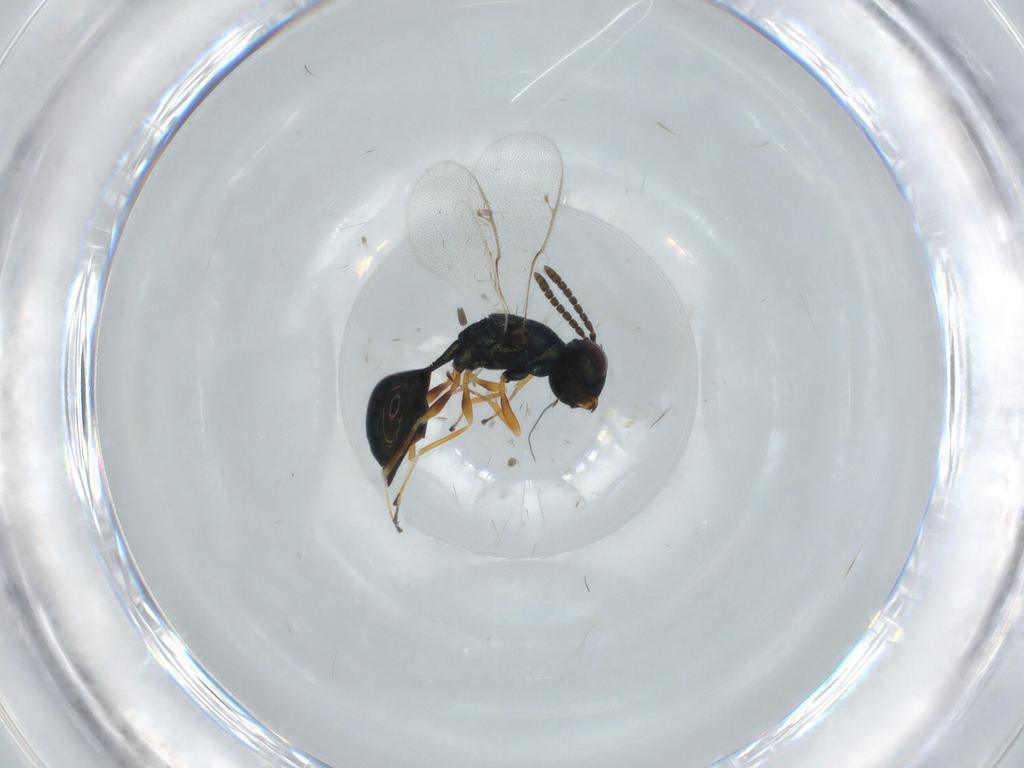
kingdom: Animalia
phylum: Arthropoda
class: Insecta
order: Hymenoptera
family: Pteromalidae
